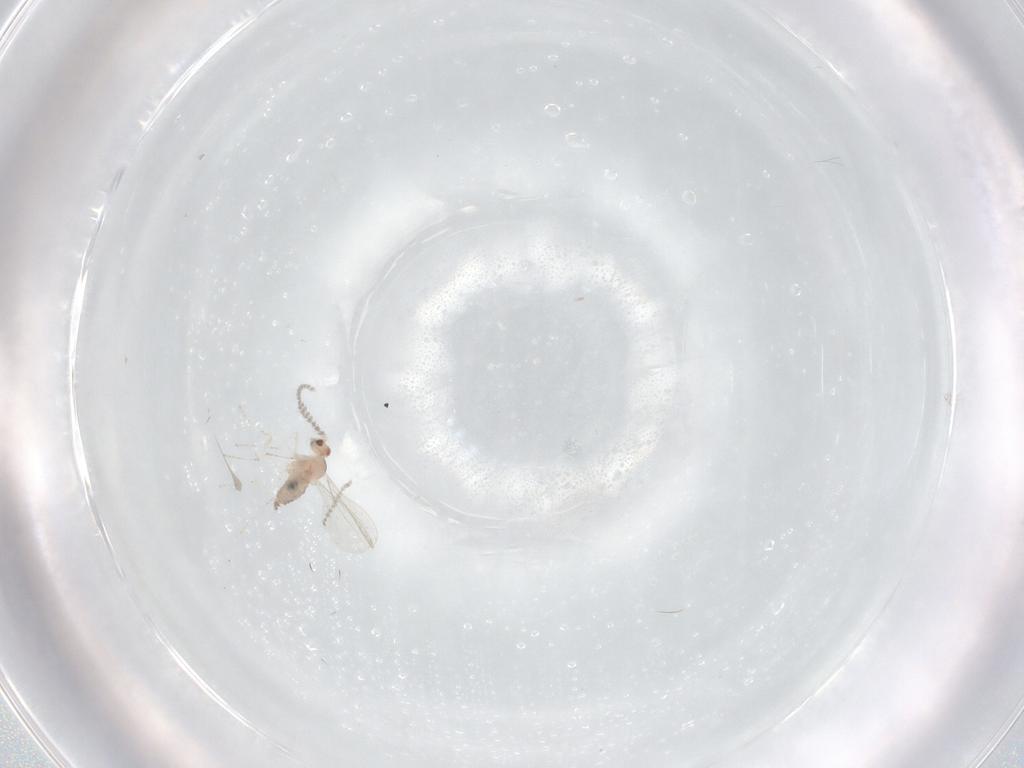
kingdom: Animalia
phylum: Arthropoda
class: Insecta
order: Diptera
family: Cecidomyiidae
